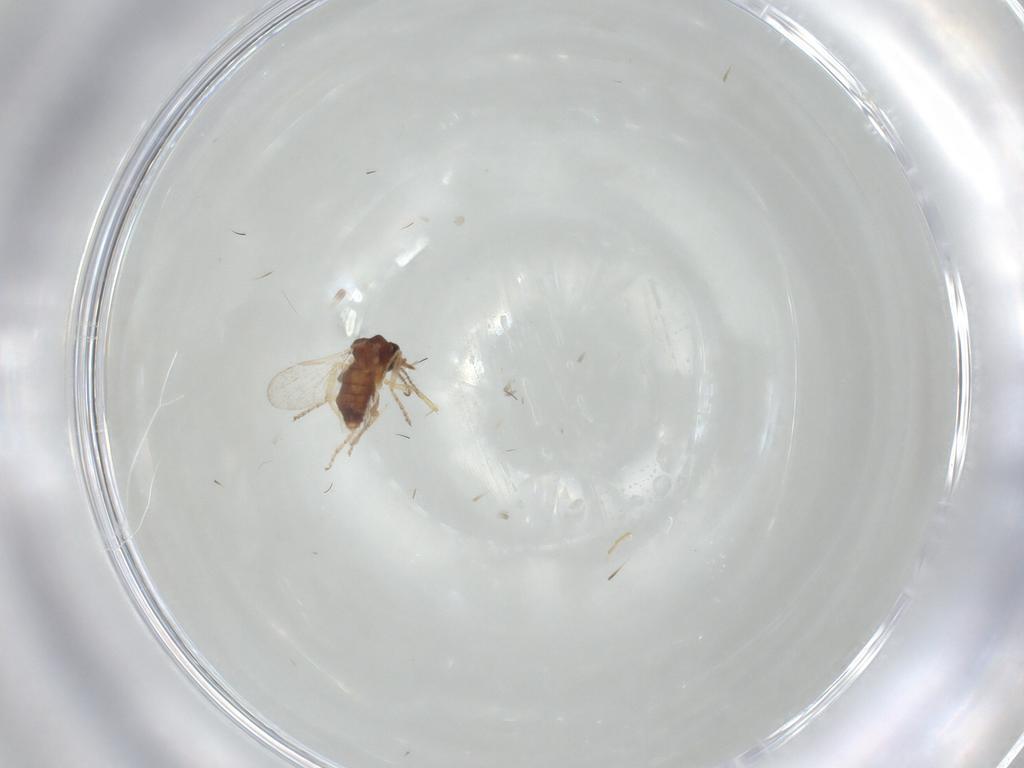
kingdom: Animalia
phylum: Arthropoda
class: Insecta
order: Diptera
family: Ceratopogonidae
